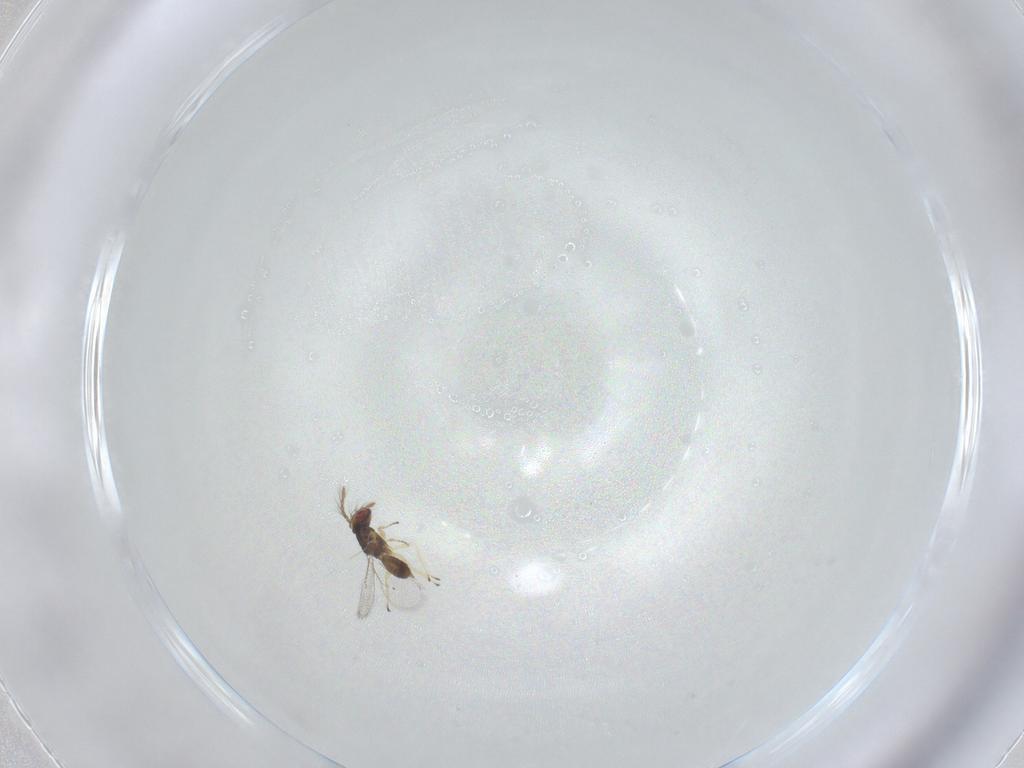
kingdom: Animalia
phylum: Arthropoda
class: Insecta
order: Hymenoptera
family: Eulophidae
